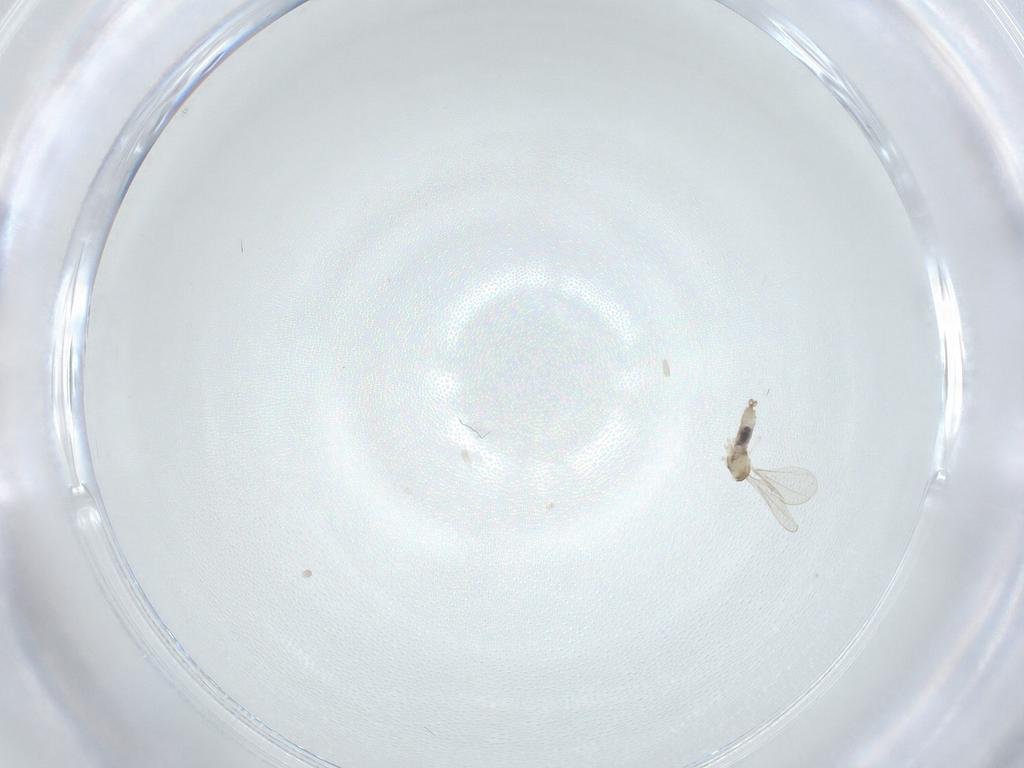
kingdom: Animalia
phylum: Arthropoda
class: Insecta
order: Diptera
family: Cecidomyiidae
